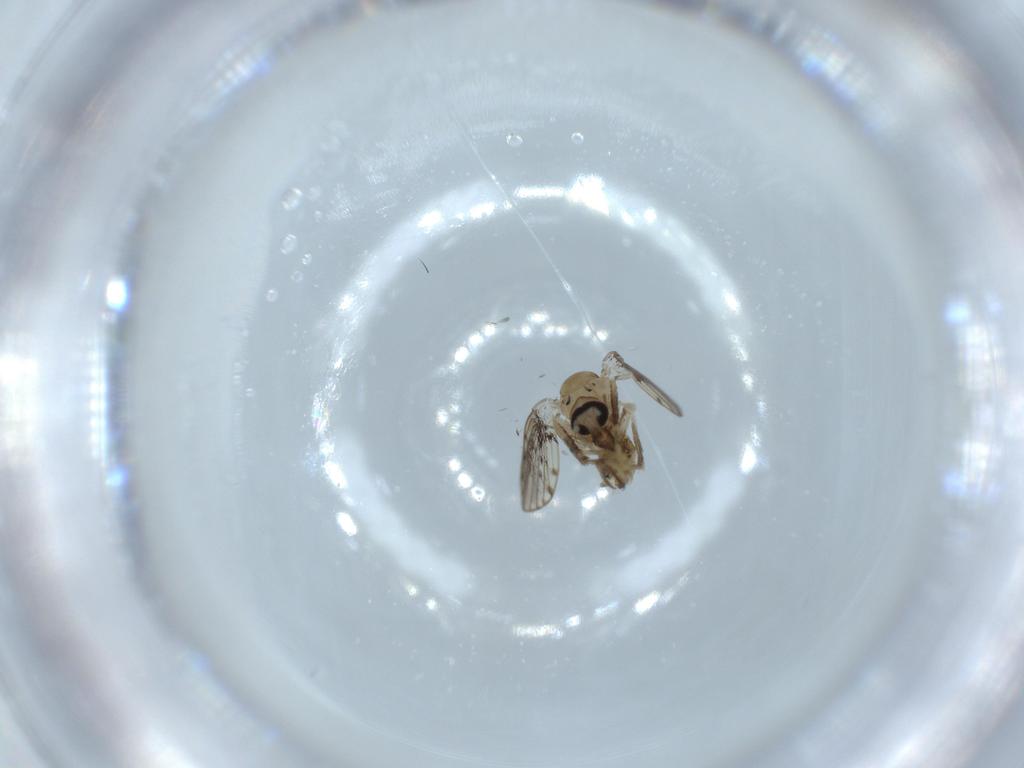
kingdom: Animalia
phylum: Arthropoda
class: Insecta
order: Diptera
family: Psychodidae
